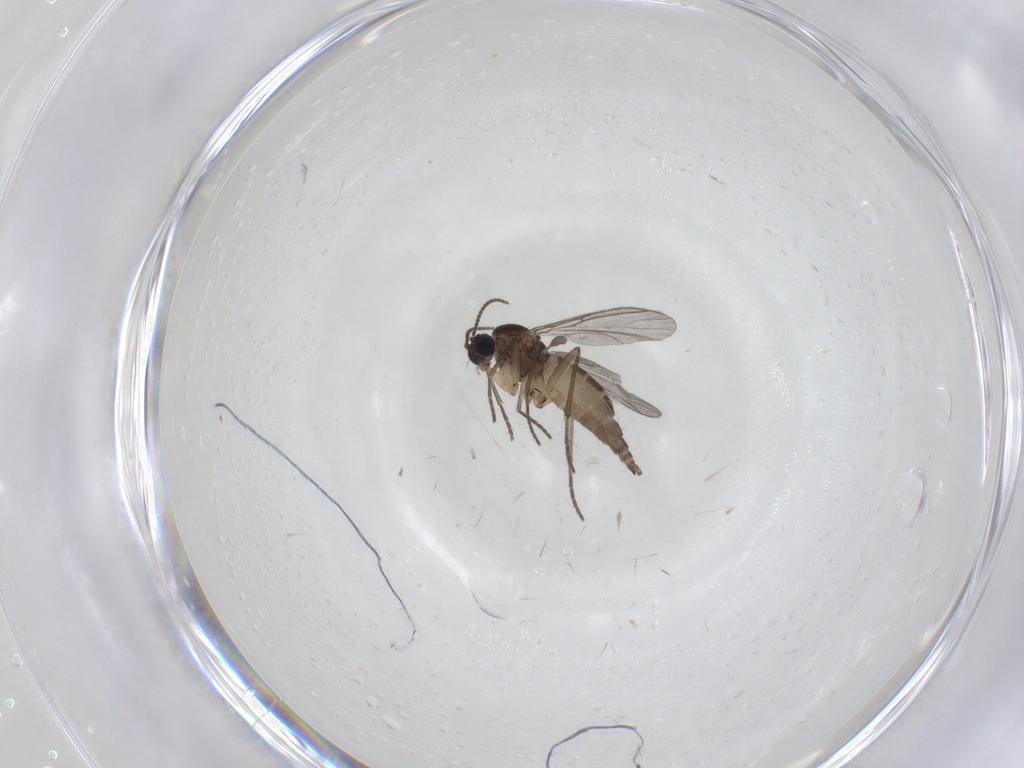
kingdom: Animalia
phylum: Arthropoda
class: Insecta
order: Diptera
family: Sciaridae
